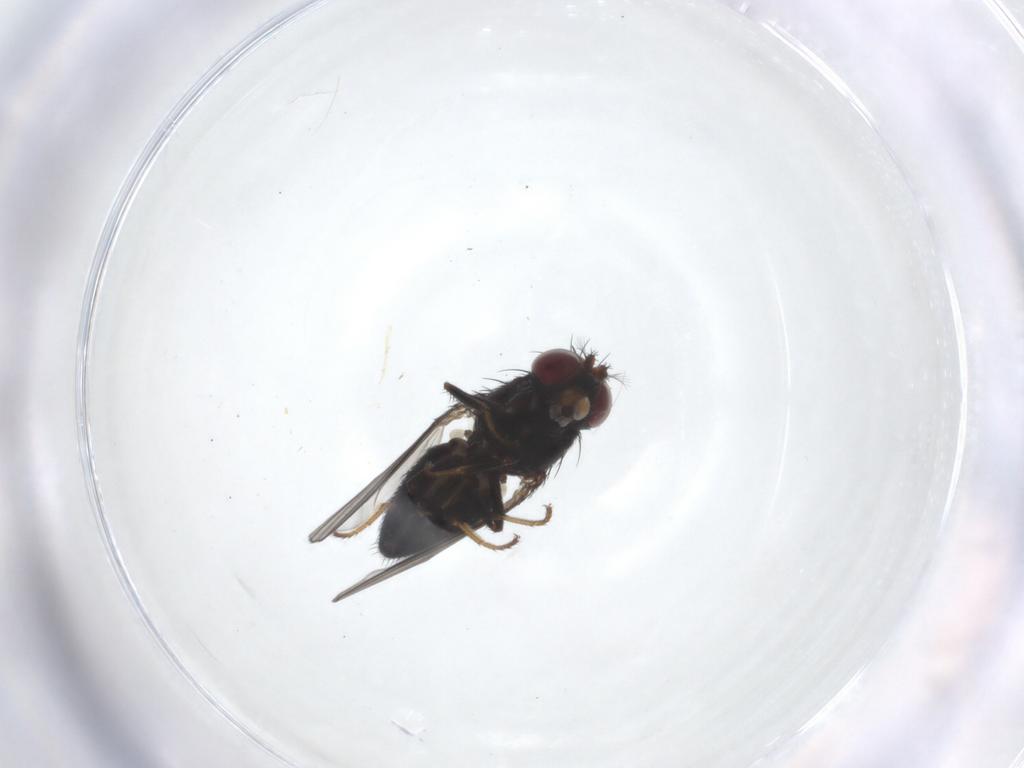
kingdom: Animalia
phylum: Arthropoda
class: Insecta
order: Diptera
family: Ephydridae
